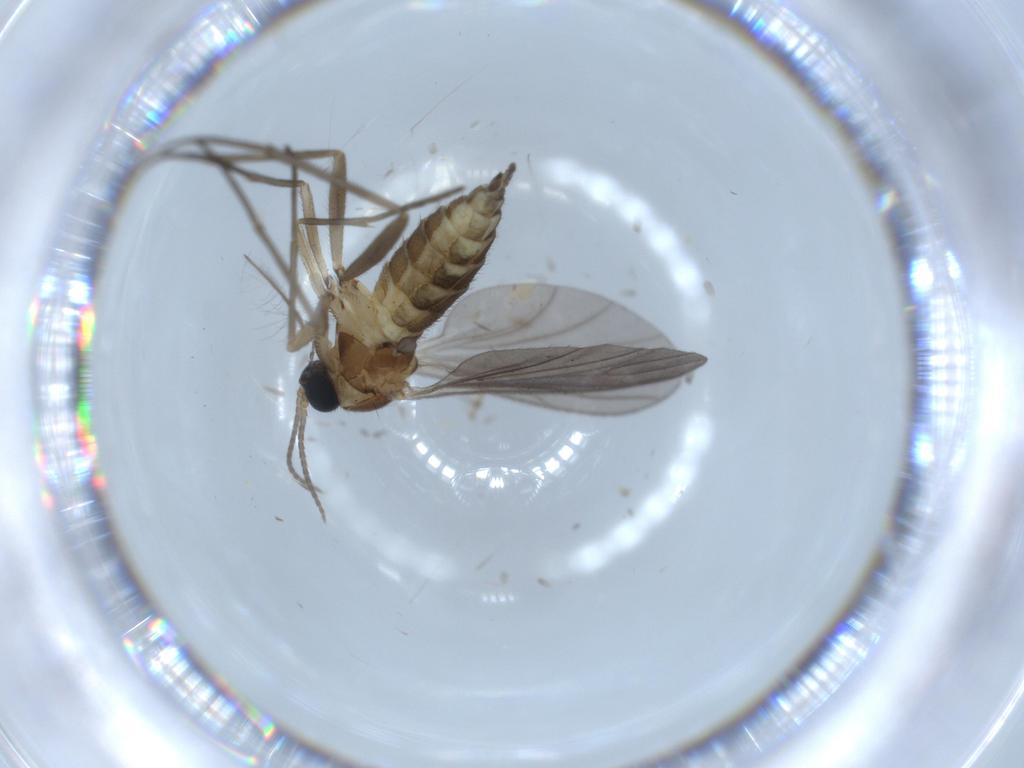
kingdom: Animalia
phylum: Arthropoda
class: Insecta
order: Diptera
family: Sciaridae
